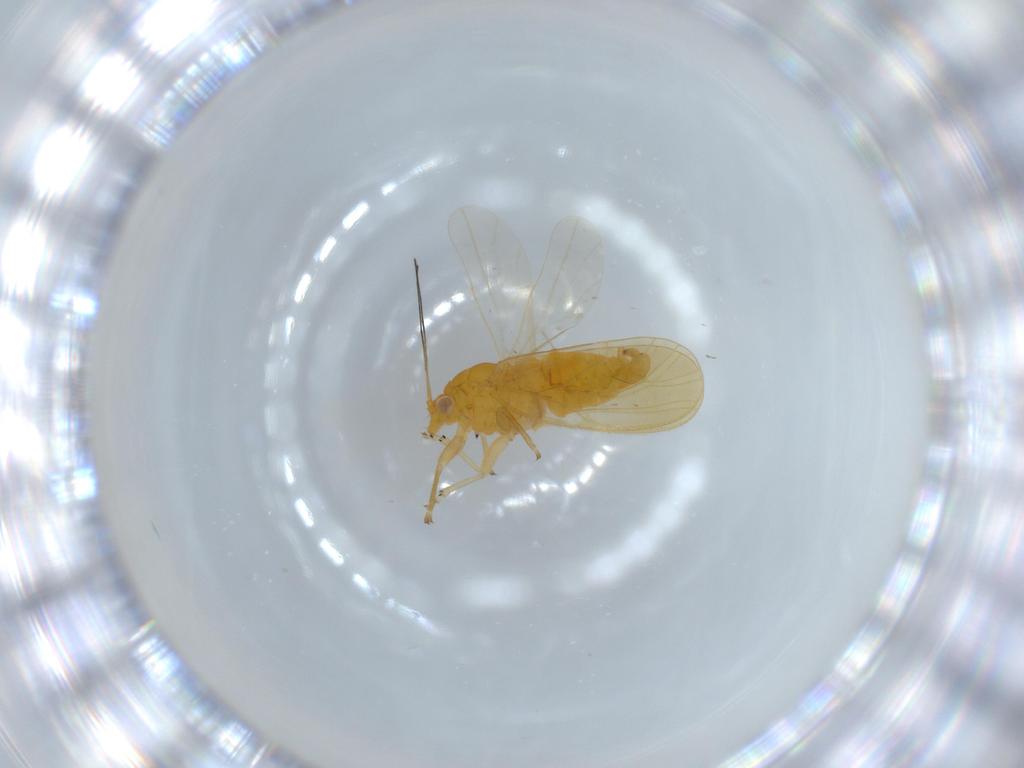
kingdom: Animalia
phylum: Arthropoda
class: Insecta
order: Hemiptera
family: Psyllidae
